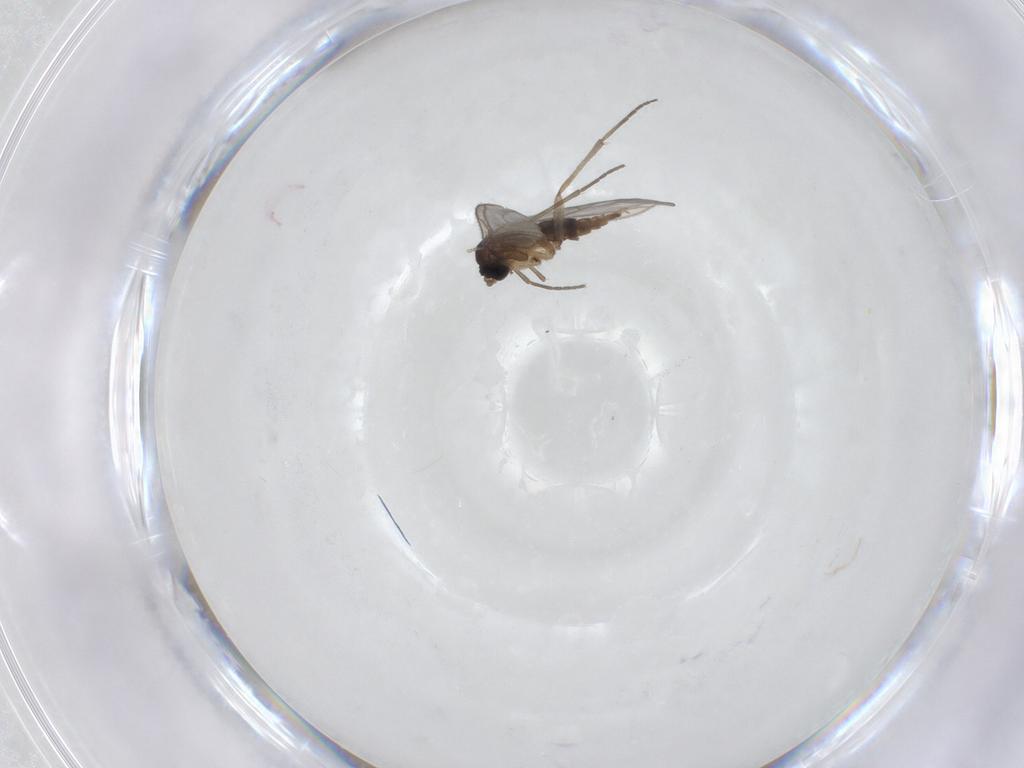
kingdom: Animalia
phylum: Arthropoda
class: Insecta
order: Diptera
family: Sciaridae
